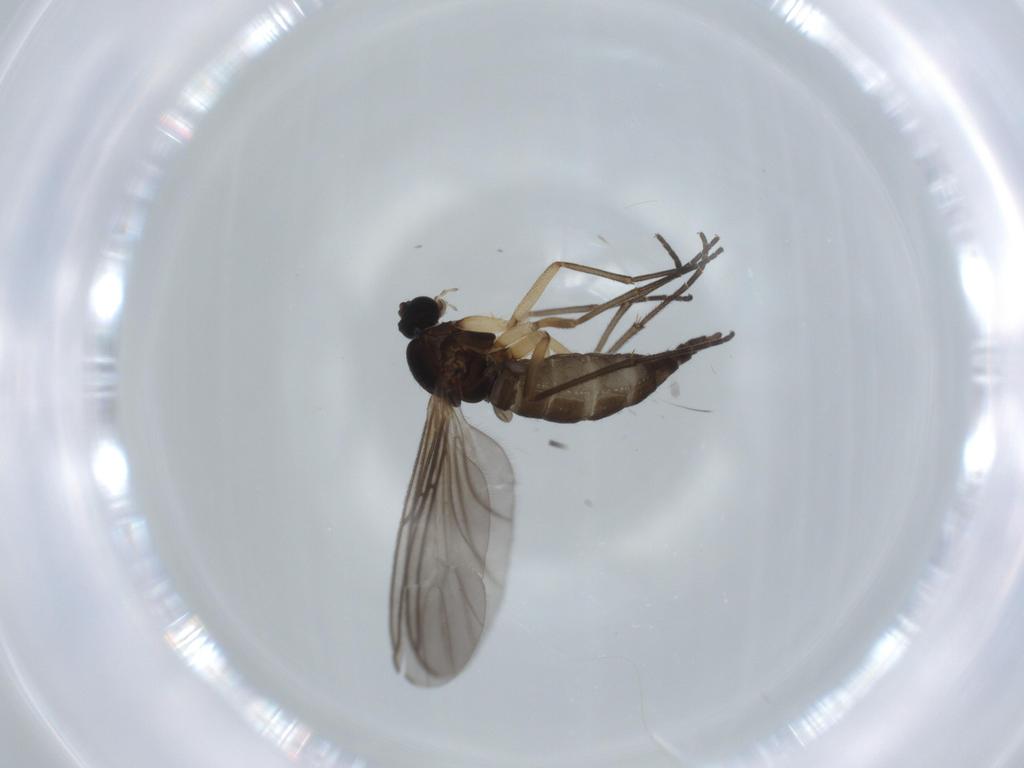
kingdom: Animalia
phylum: Arthropoda
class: Insecta
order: Diptera
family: Sciaridae
